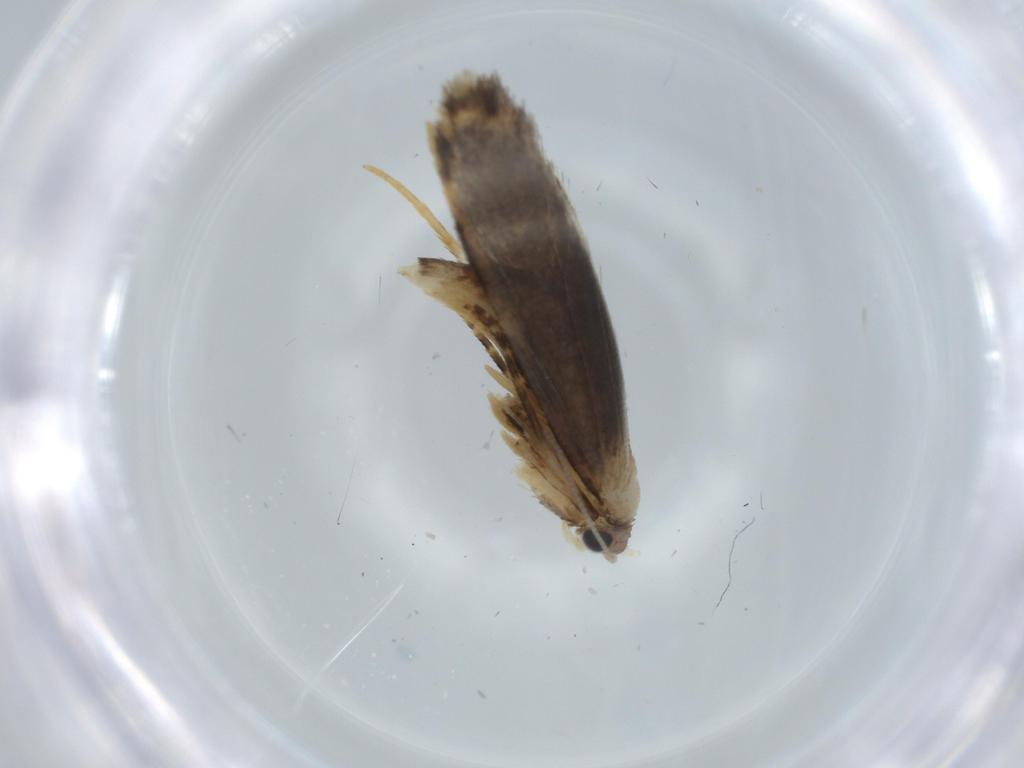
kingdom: Animalia
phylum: Arthropoda
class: Insecta
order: Lepidoptera
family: Tineidae
